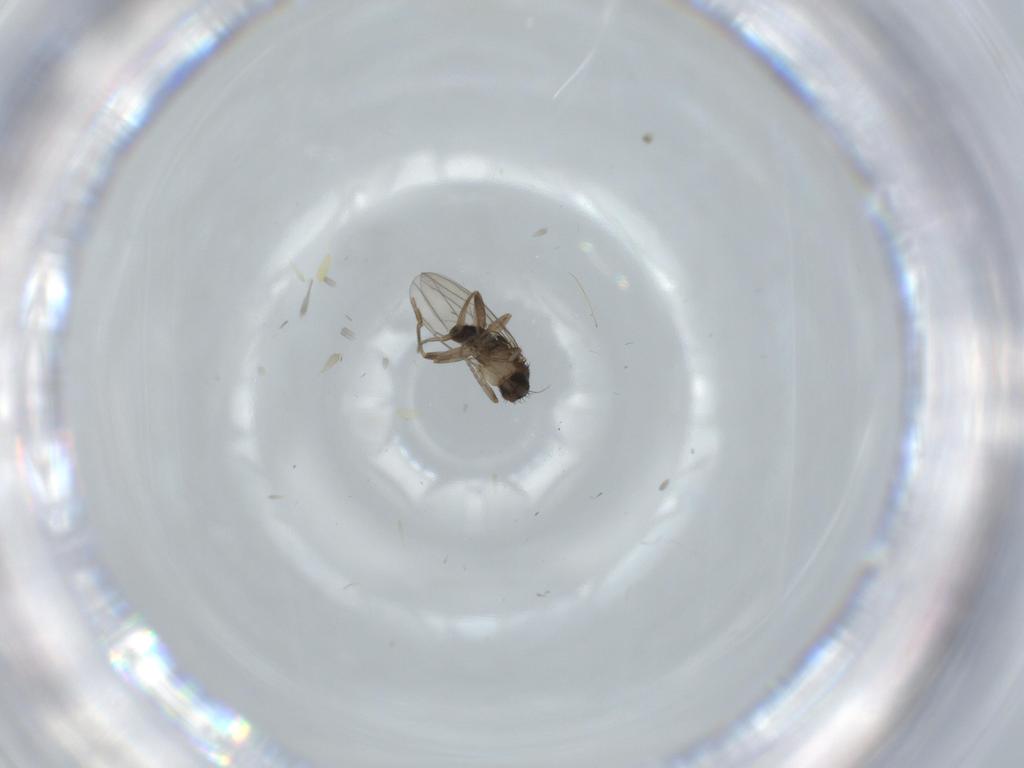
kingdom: Animalia
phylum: Arthropoda
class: Insecta
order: Diptera
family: Phoridae
